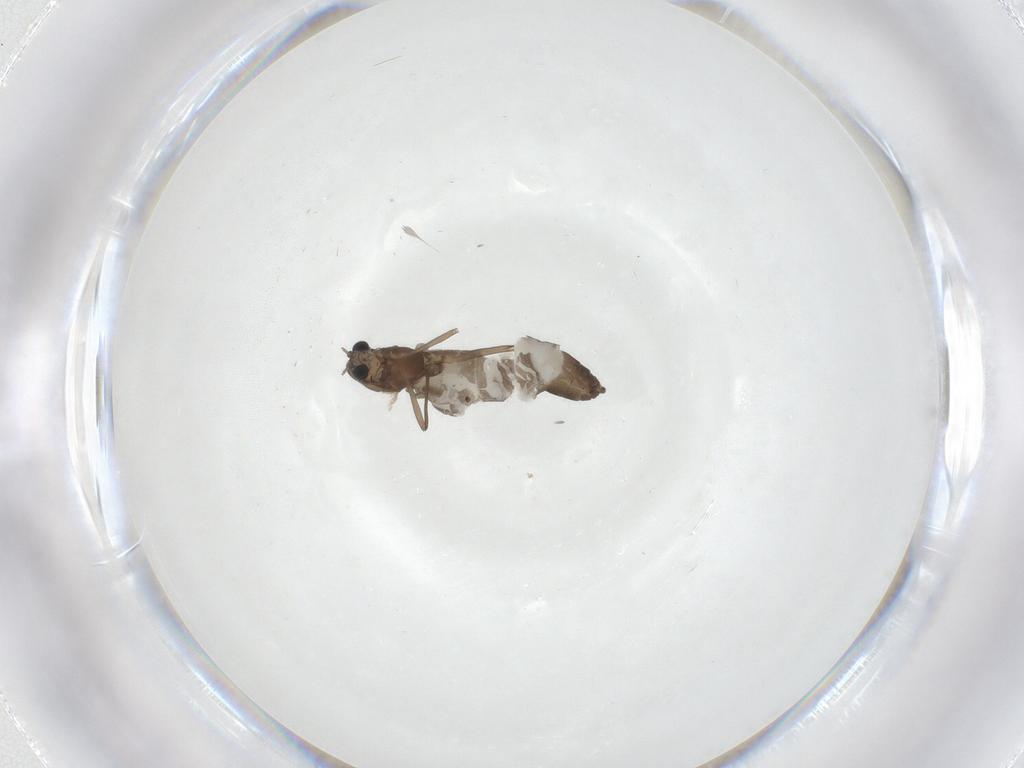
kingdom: Animalia
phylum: Arthropoda
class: Insecta
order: Diptera
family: Chironomidae
